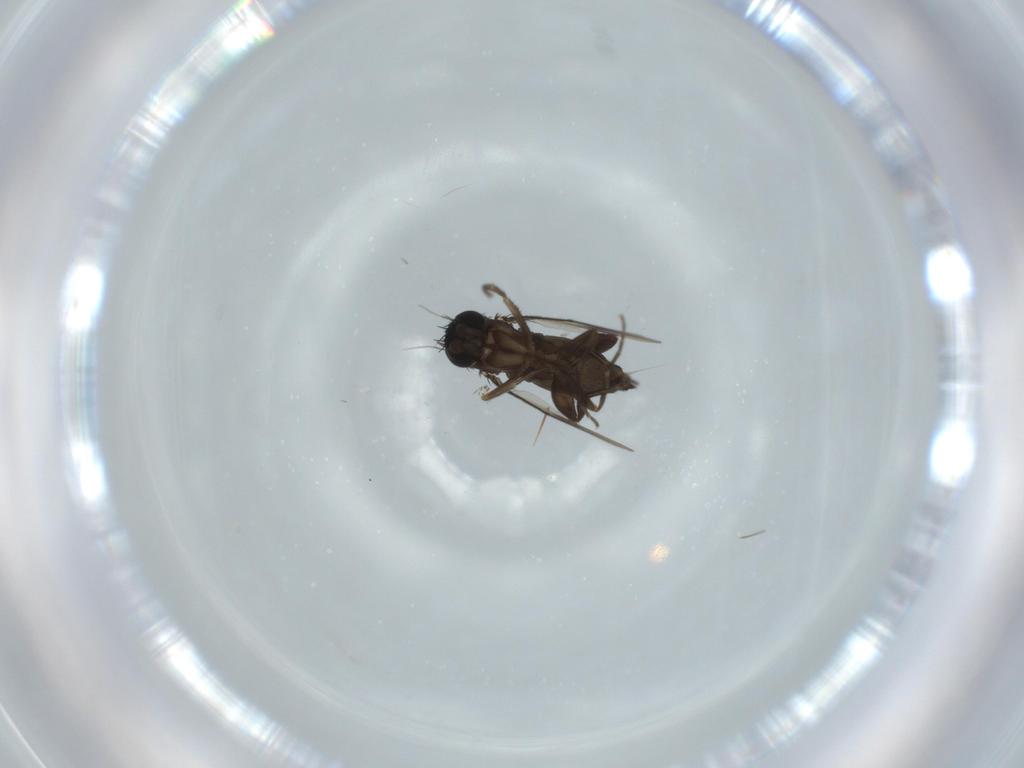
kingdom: Animalia
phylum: Arthropoda
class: Insecta
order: Diptera
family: Phoridae
